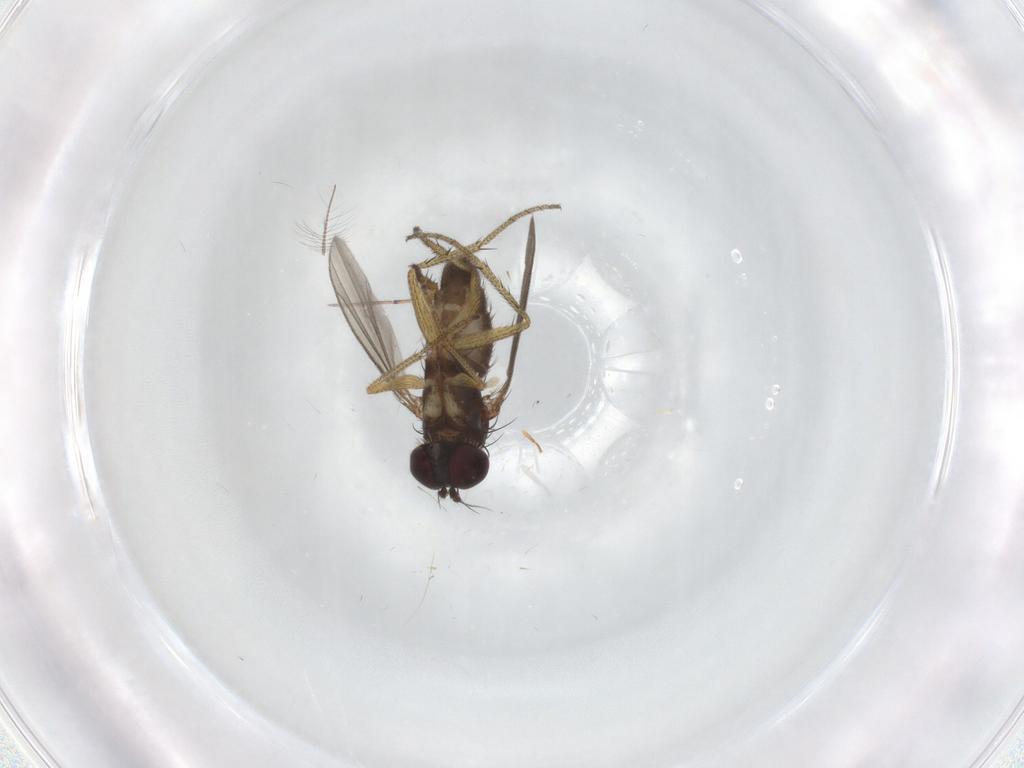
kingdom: Animalia
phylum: Arthropoda
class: Insecta
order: Diptera
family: Dolichopodidae
